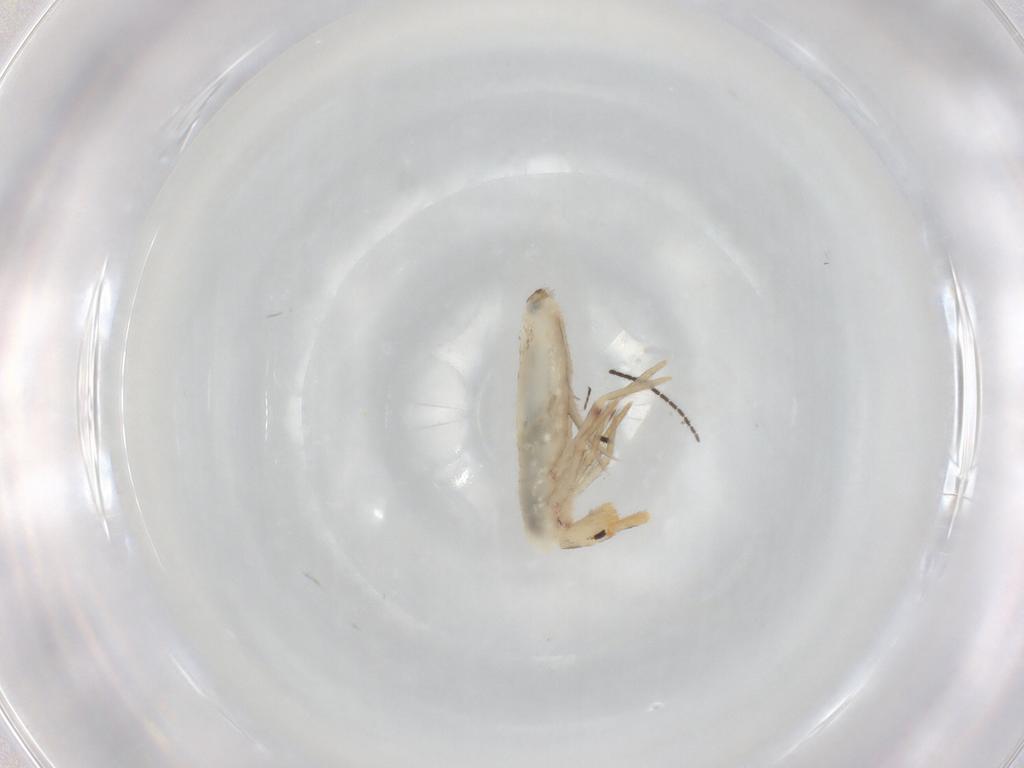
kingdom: Animalia
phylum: Arthropoda
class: Collembola
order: Poduromorpha
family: Hypogastruridae
